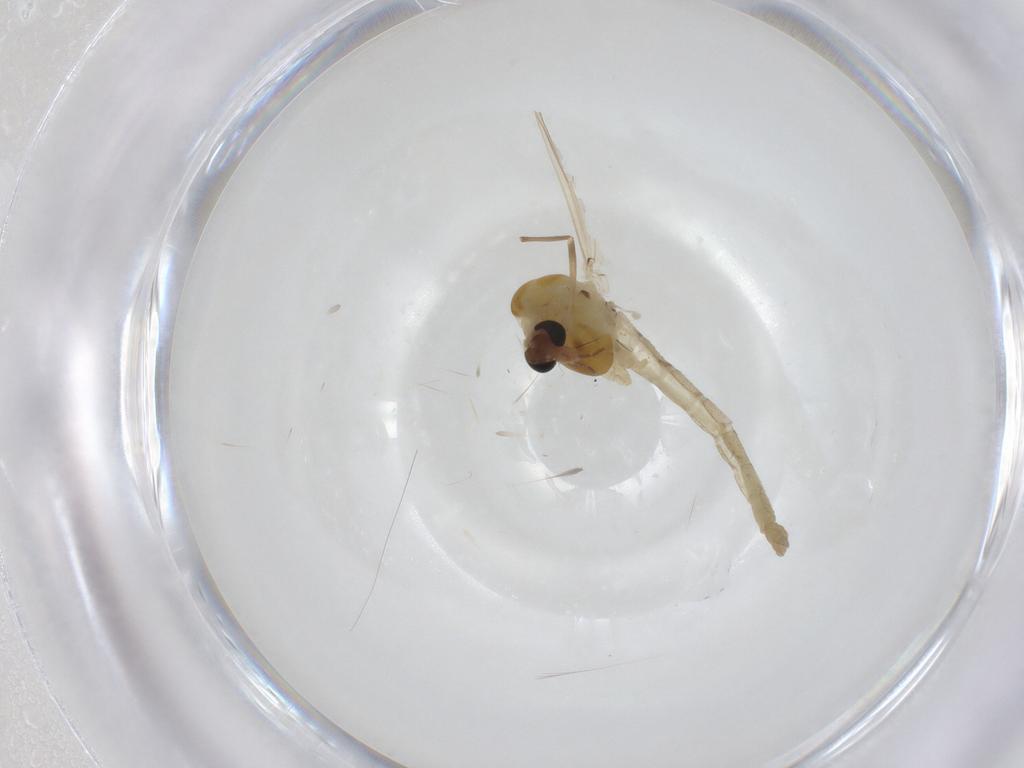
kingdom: Animalia
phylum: Arthropoda
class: Insecta
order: Diptera
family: Chironomidae
